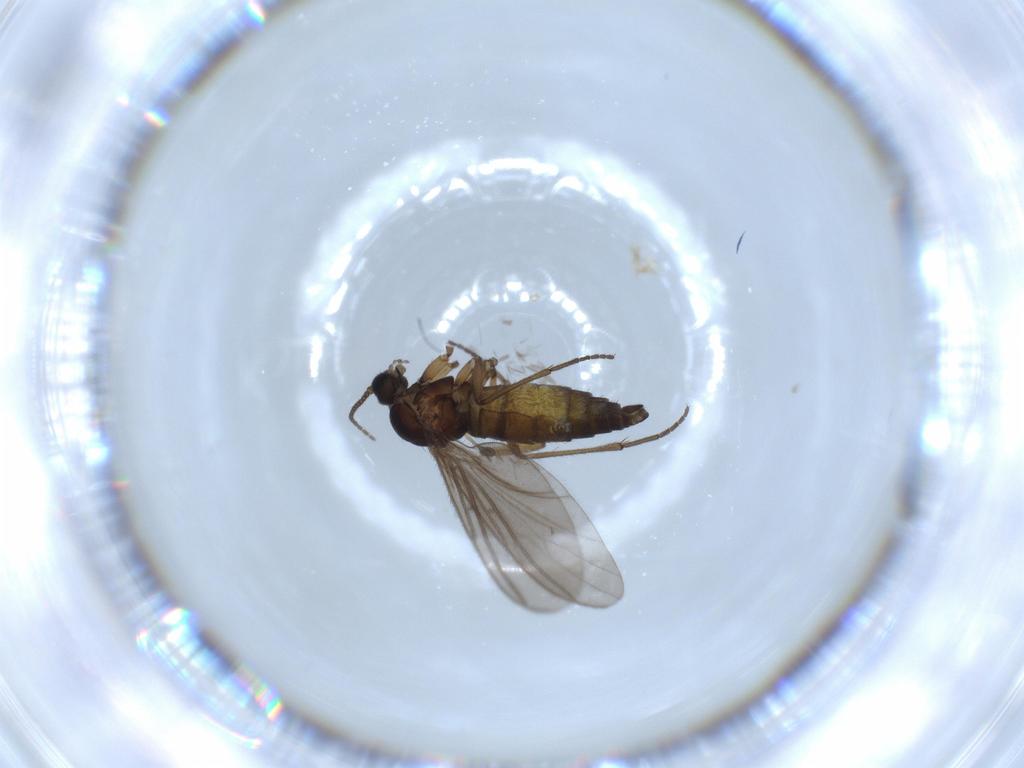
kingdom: Animalia
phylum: Arthropoda
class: Insecta
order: Diptera
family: Sciaridae
